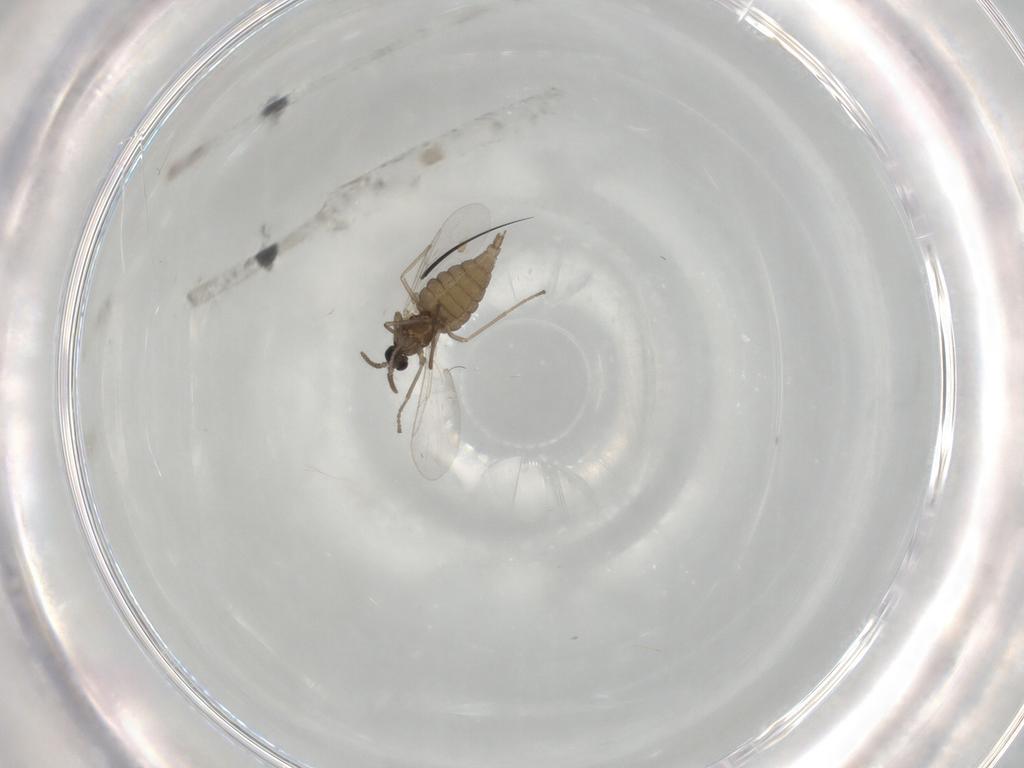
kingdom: Animalia
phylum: Arthropoda
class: Insecta
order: Diptera
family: Cecidomyiidae
